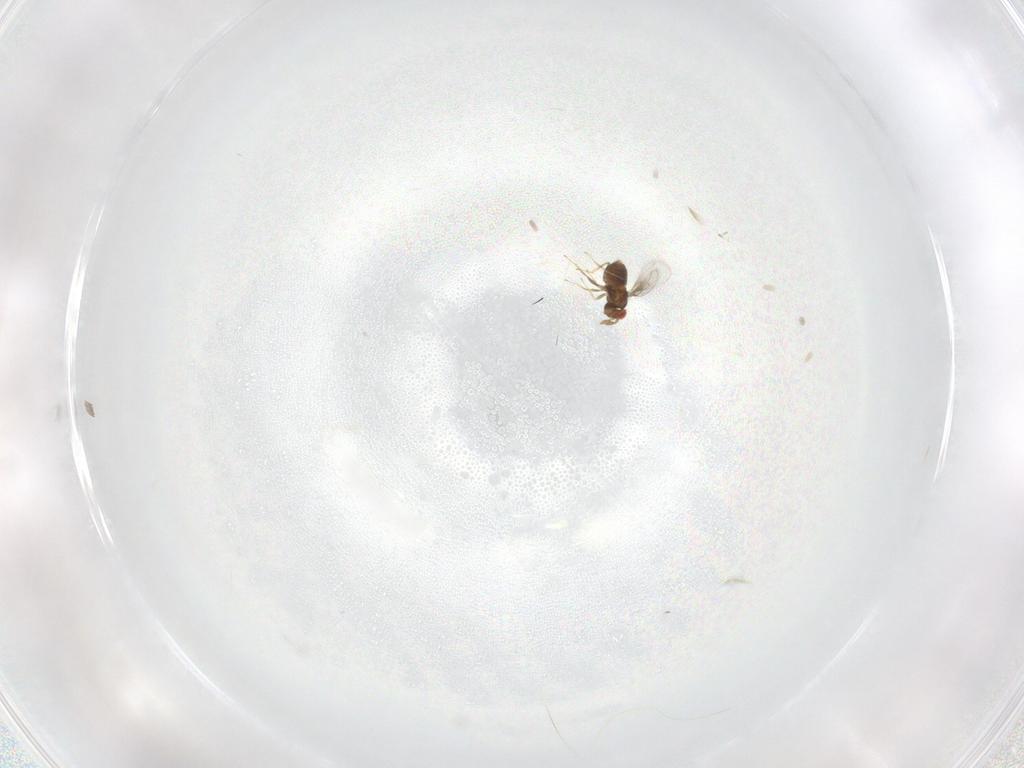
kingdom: Animalia
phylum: Arthropoda
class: Insecta
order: Hymenoptera
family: Trichogrammatidae
